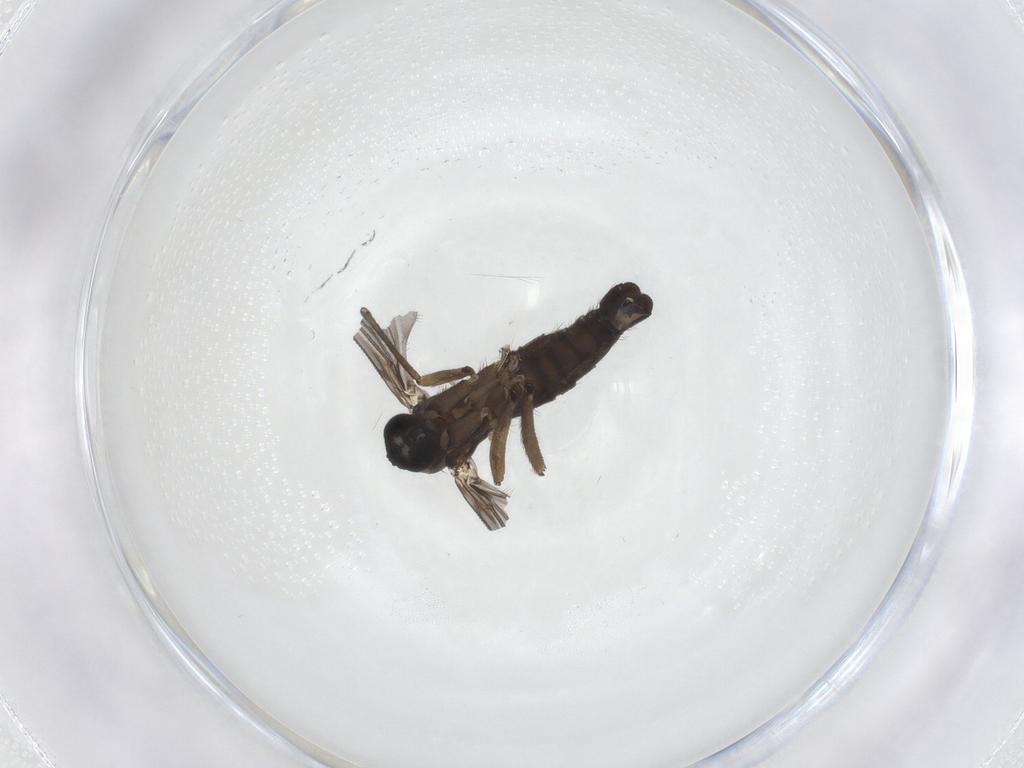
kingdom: Animalia
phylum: Arthropoda
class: Insecta
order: Diptera
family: Sciaridae
